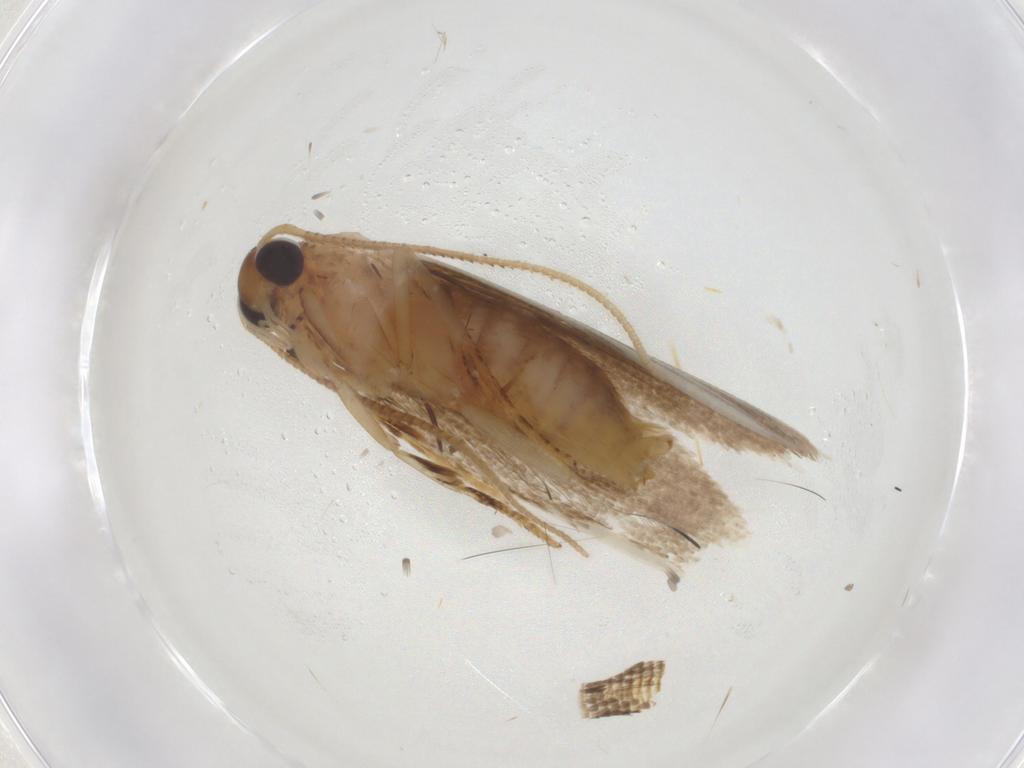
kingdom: Animalia
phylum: Arthropoda
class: Insecta
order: Lepidoptera
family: Blastobasidae
